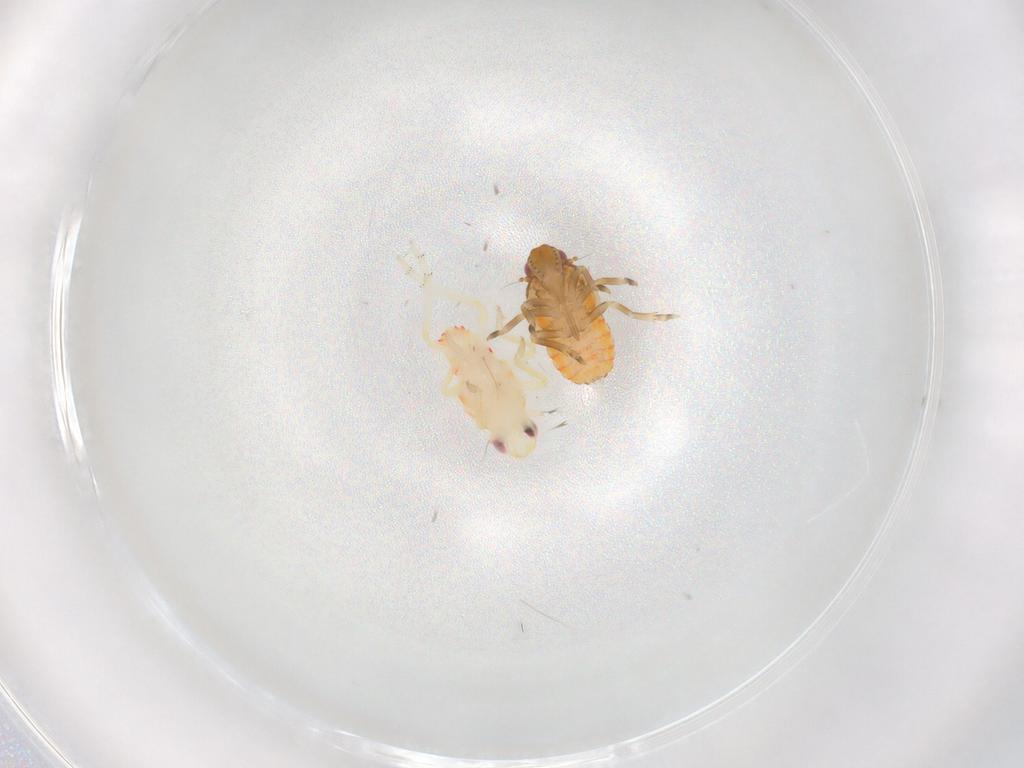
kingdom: Animalia
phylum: Arthropoda
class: Insecta
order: Hemiptera
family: Flatidae
